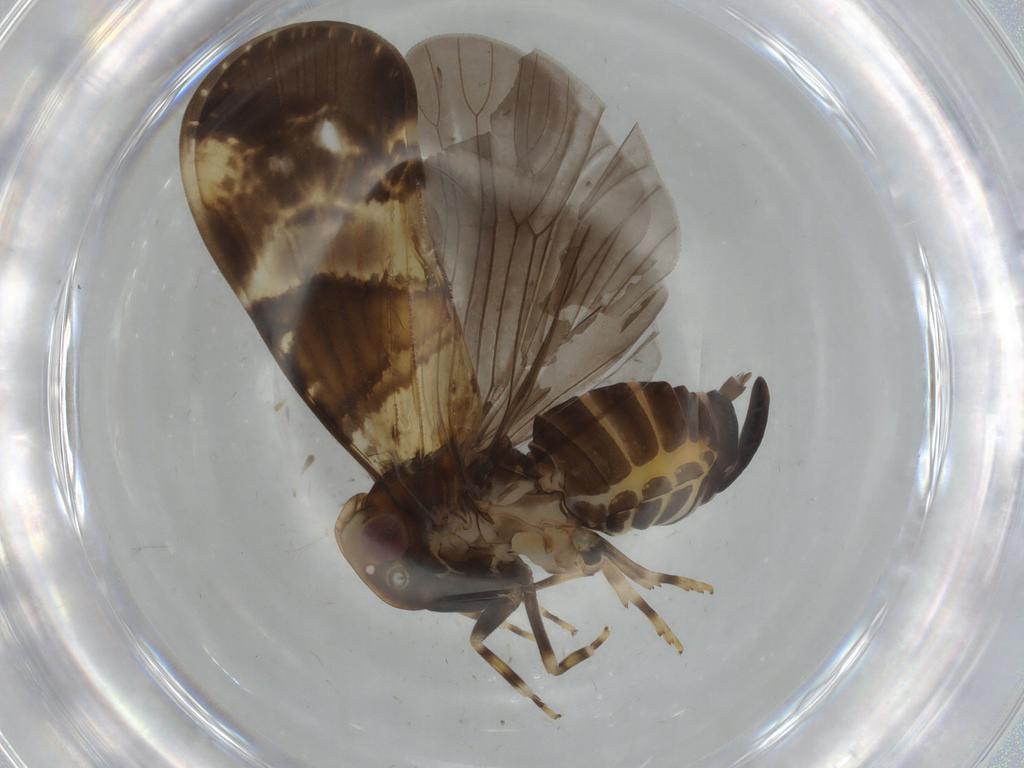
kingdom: Animalia
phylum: Arthropoda
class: Insecta
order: Hemiptera
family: Cixiidae
